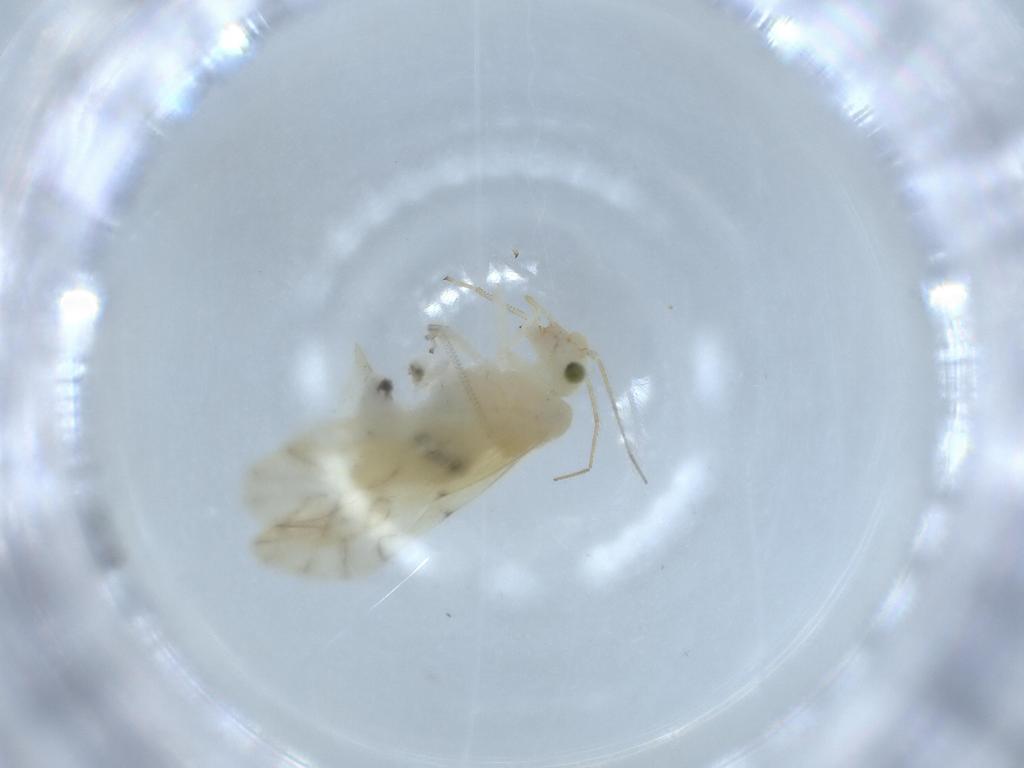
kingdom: Animalia
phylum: Arthropoda
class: Insecta
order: Psocodea
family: Caeciliusidae
